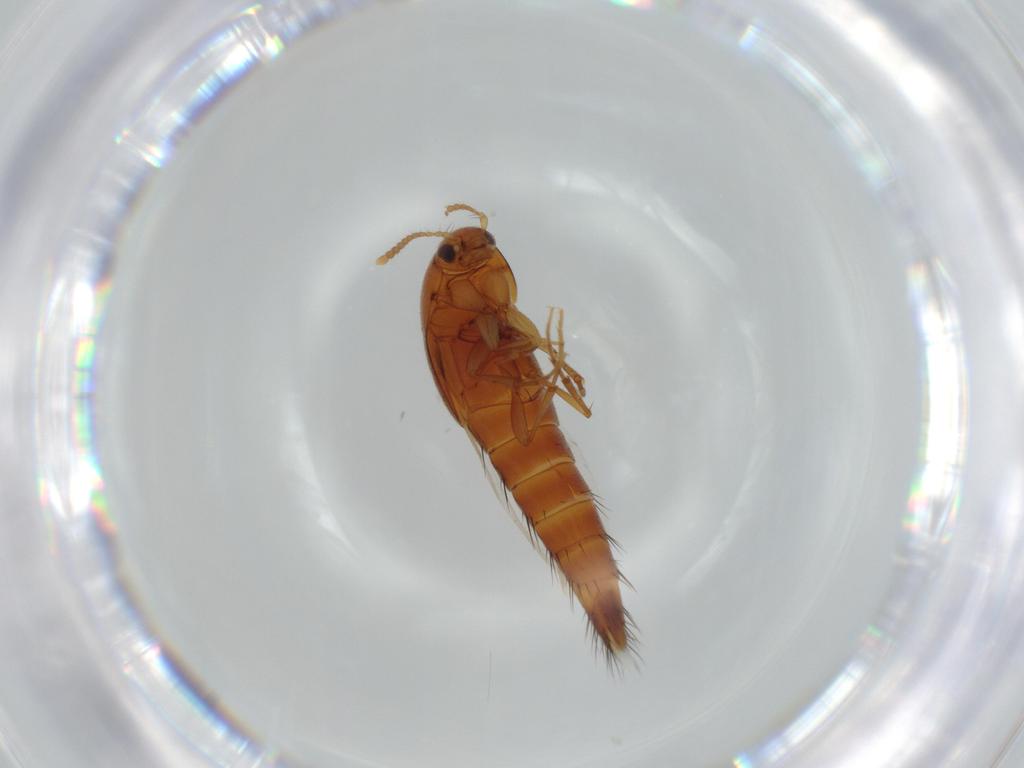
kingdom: Animalia
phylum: Arthropoda
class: Insecta
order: Coleoptera
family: Staphylinidae
